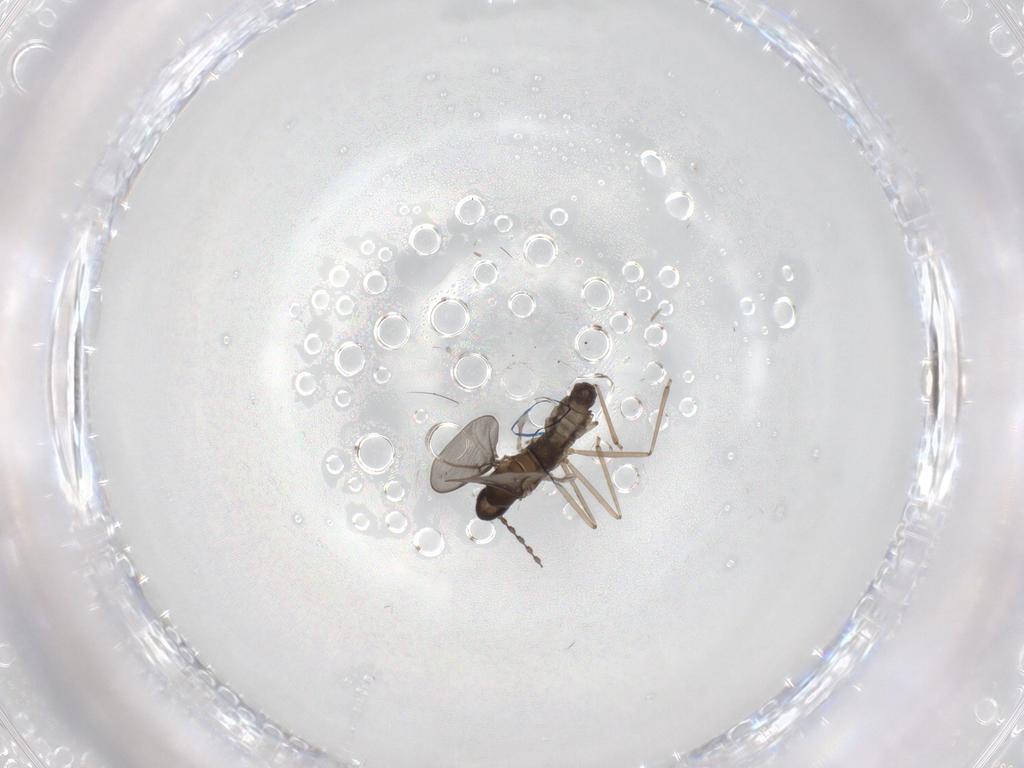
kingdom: Animalia
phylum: Arthropoda
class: Insecta
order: Diptera
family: Cecidomyiidae
